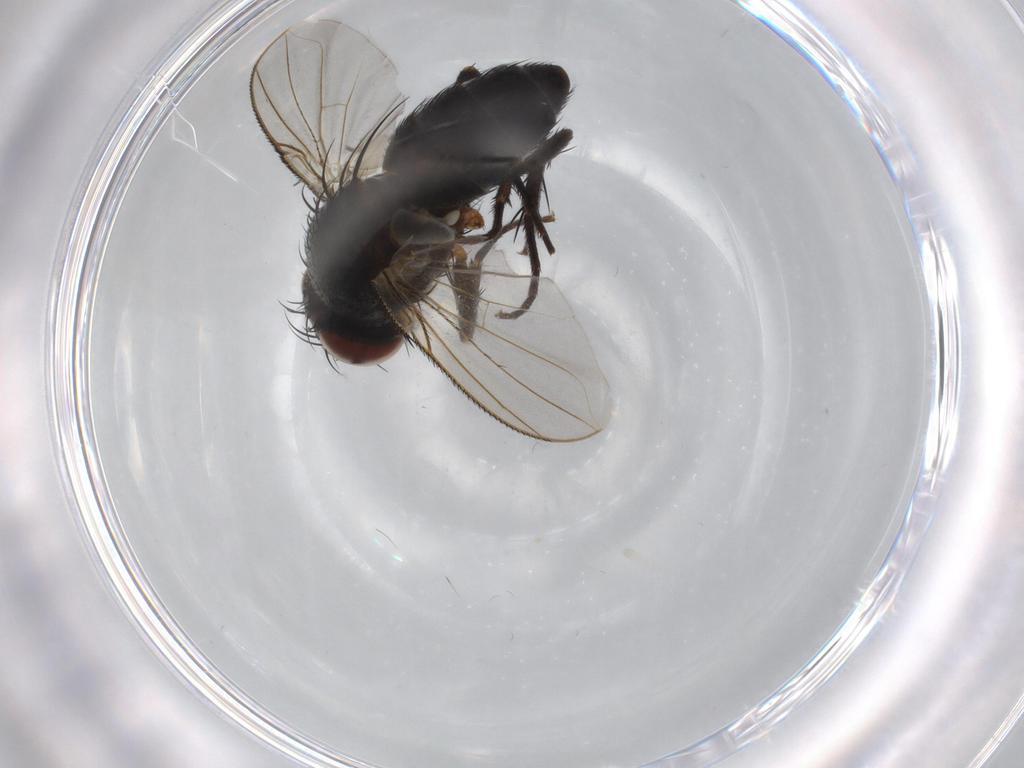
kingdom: Animalia
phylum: Arthropoda
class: Insecta
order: Diptera
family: Tachinidae
